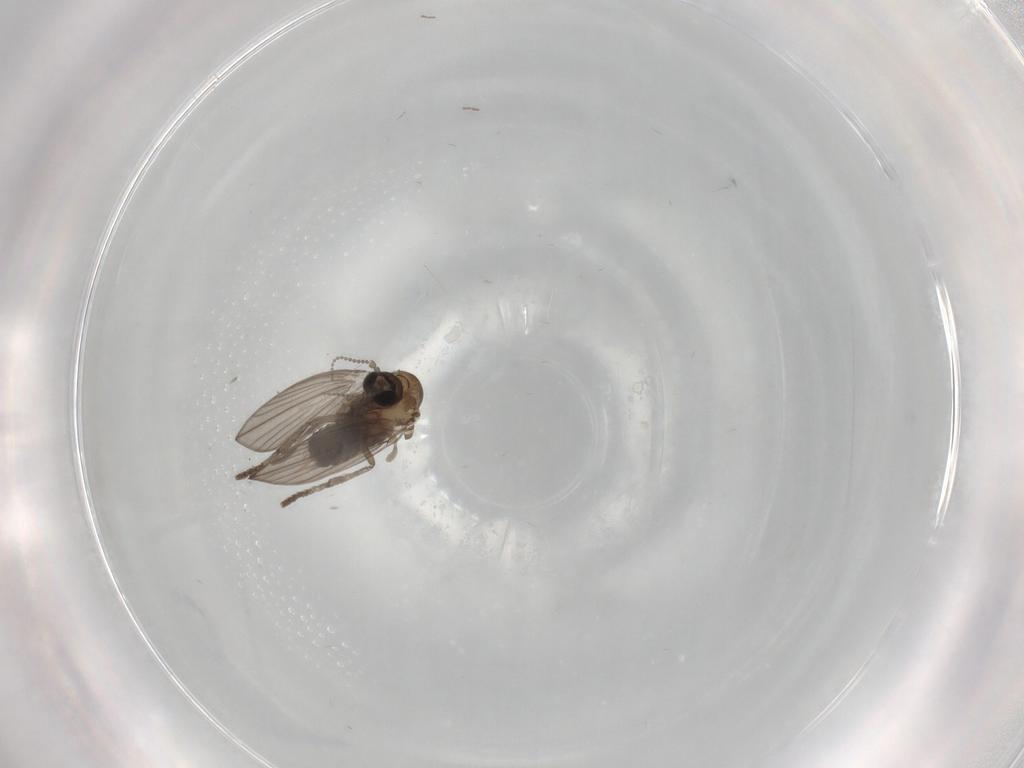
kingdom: Animalia
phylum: Arthropoda
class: Insecta
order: Diptera
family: Psychodidae
